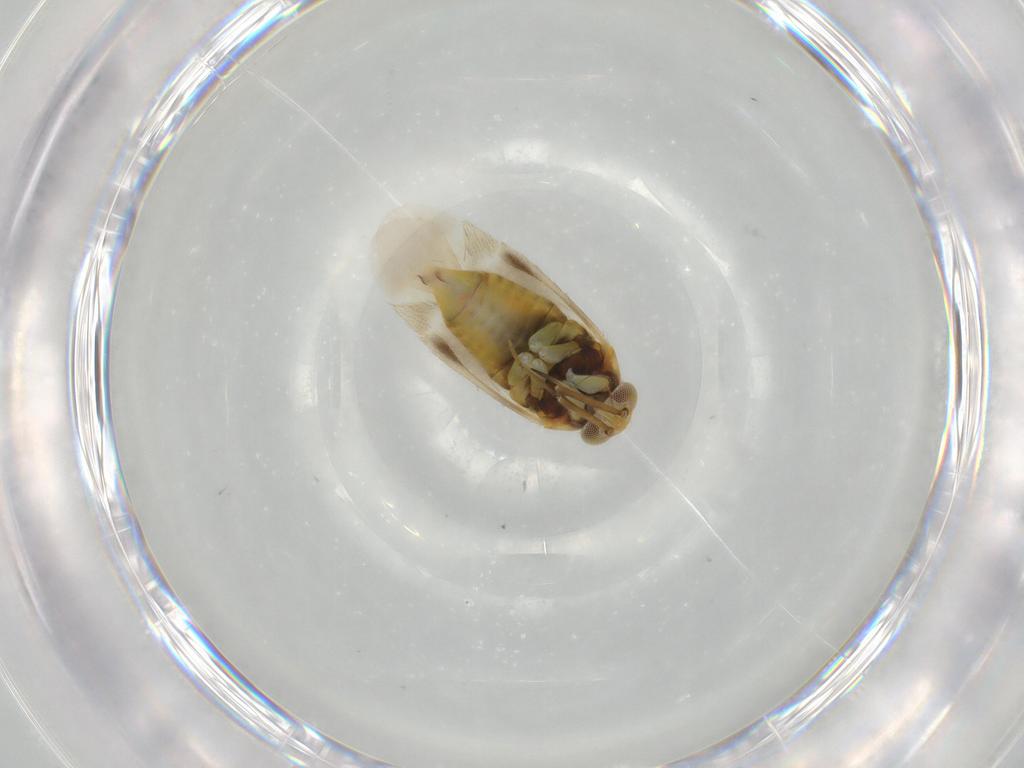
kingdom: Animalia
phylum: Arthropoda
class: Insecta
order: Hemiptera
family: Miridae
